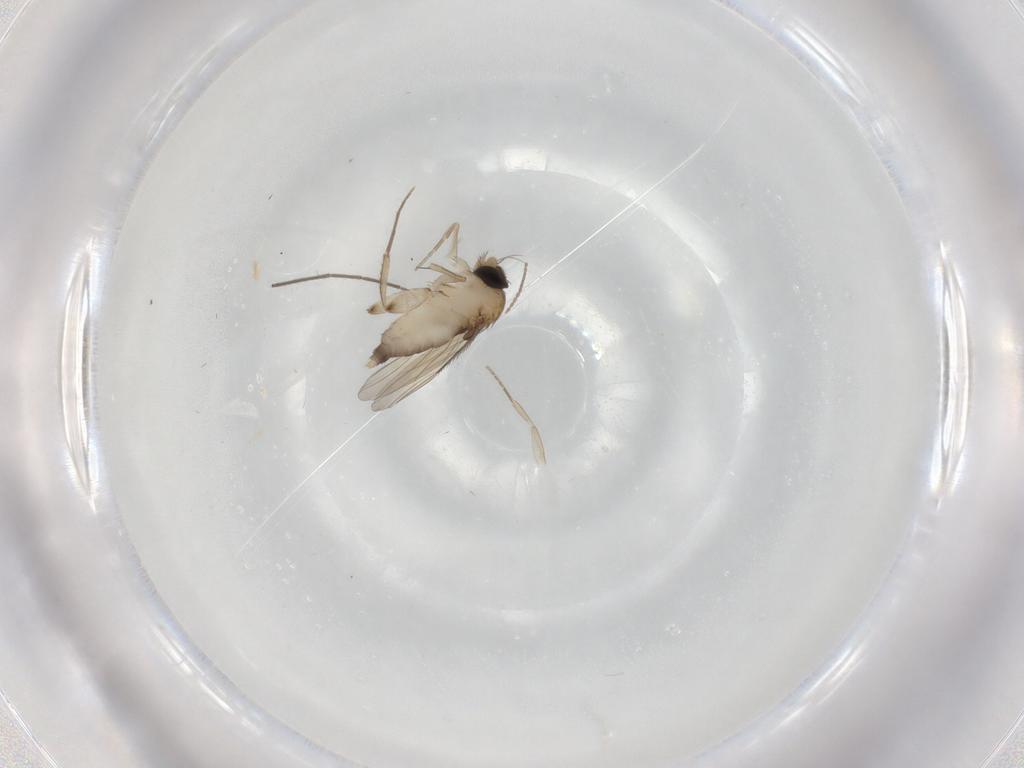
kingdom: Animalia
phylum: Arthropoda
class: Insecta
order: Diptera
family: Phoridae
